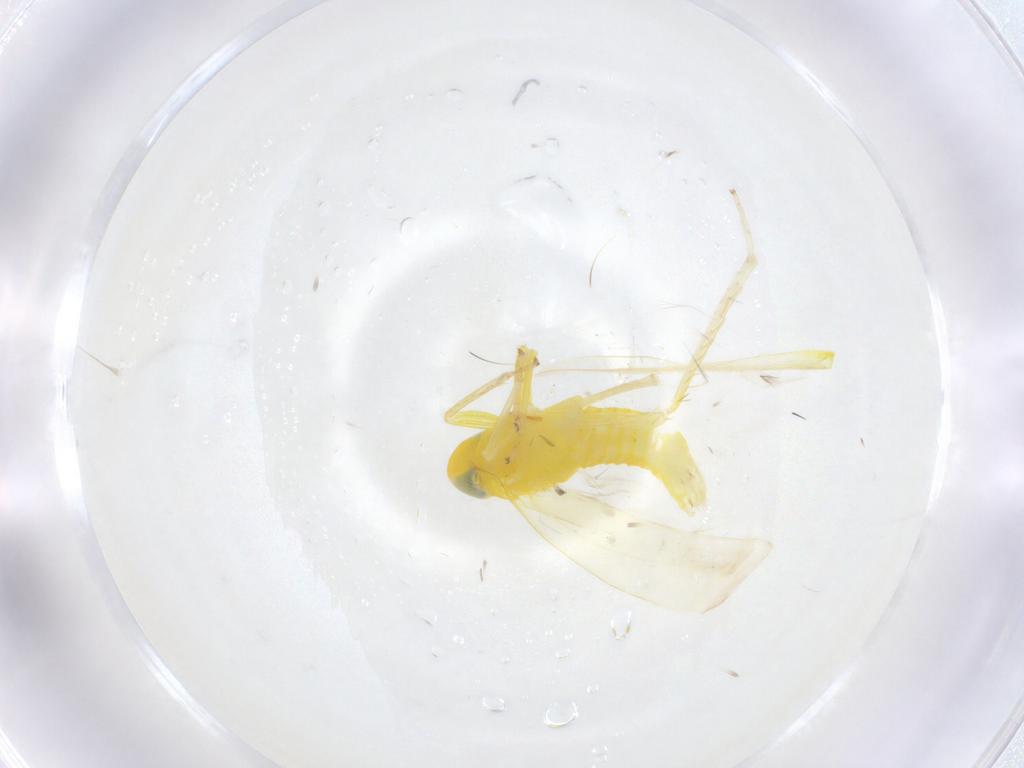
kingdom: Animalia
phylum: Arthropoda
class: Insecta
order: Hemiptera
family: Cicadellidae
